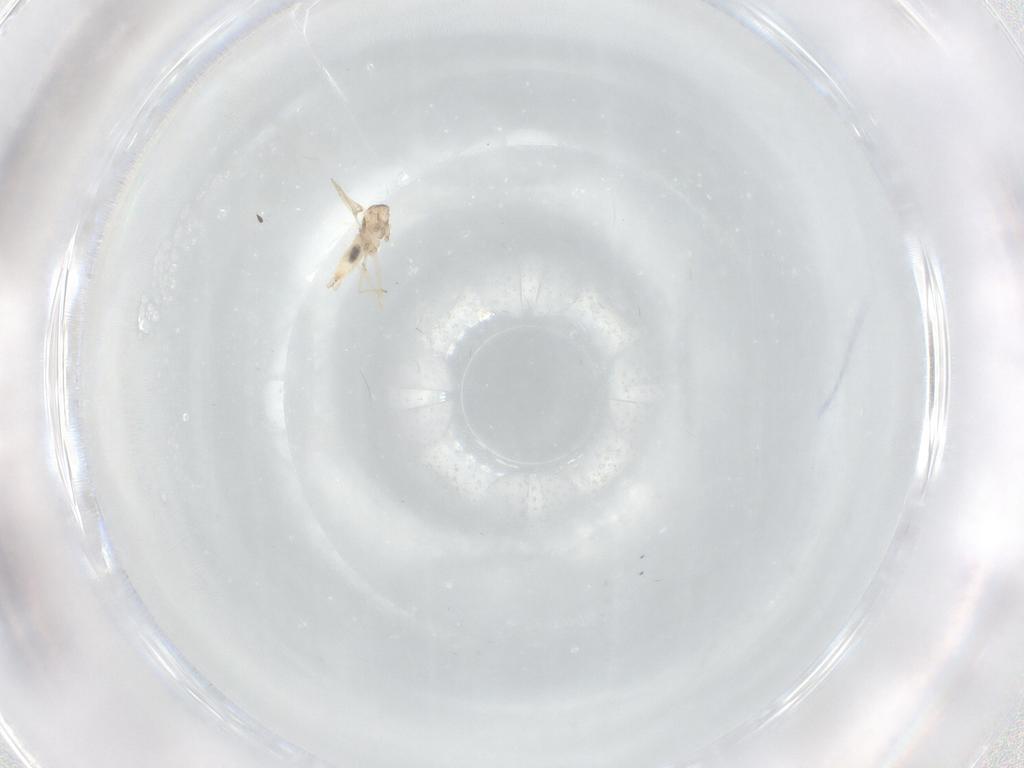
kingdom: Animalia
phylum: Arthropoda
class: Insecta
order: Diptera
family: Cecidomyiidae
